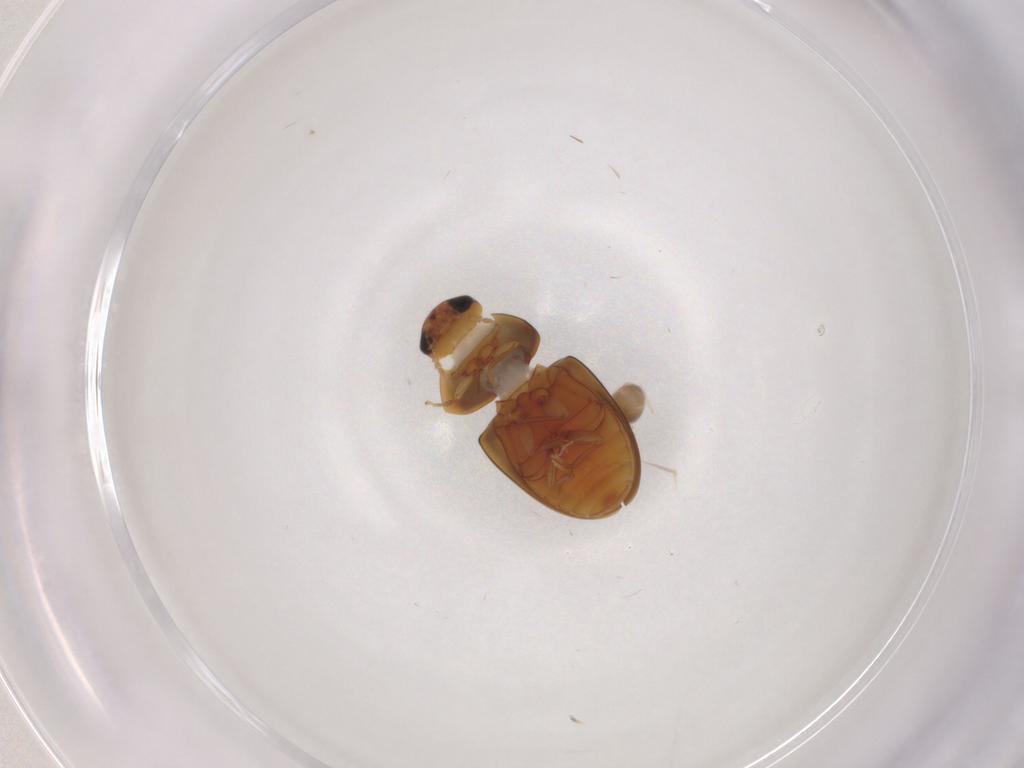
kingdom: Animalia
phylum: Arthropoda
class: Insecta
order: Coleoptera
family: Phalacridae
